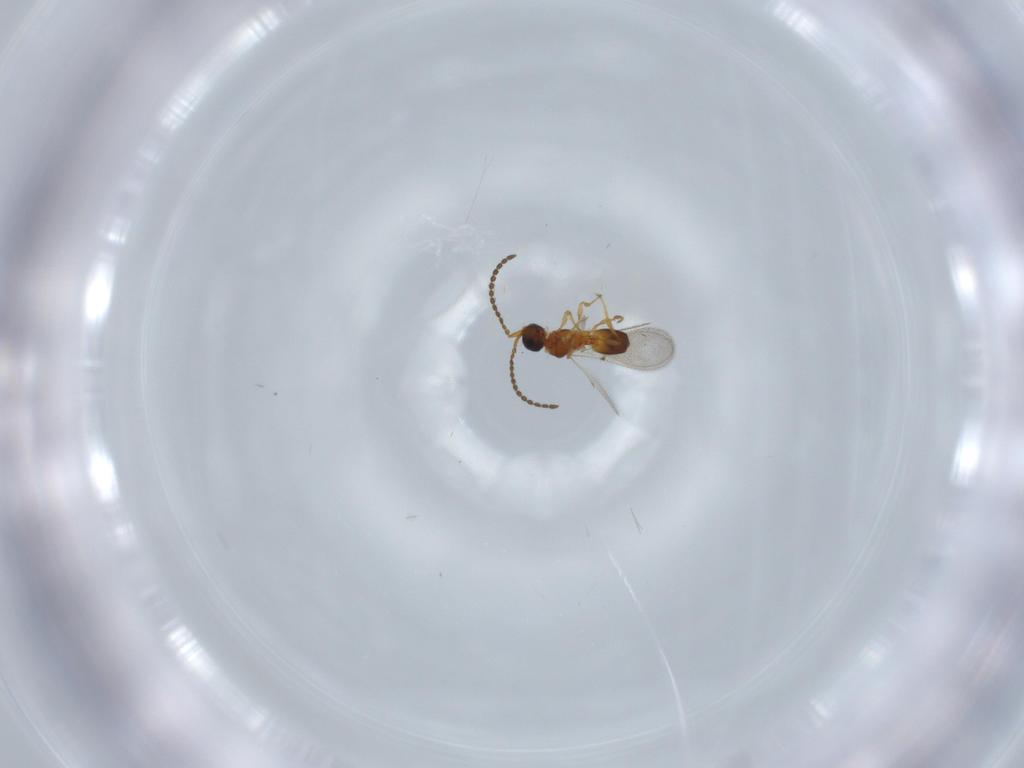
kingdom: Animalia
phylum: Arthropoda
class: Insecta
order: Hymenoptera
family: Diapriidae
